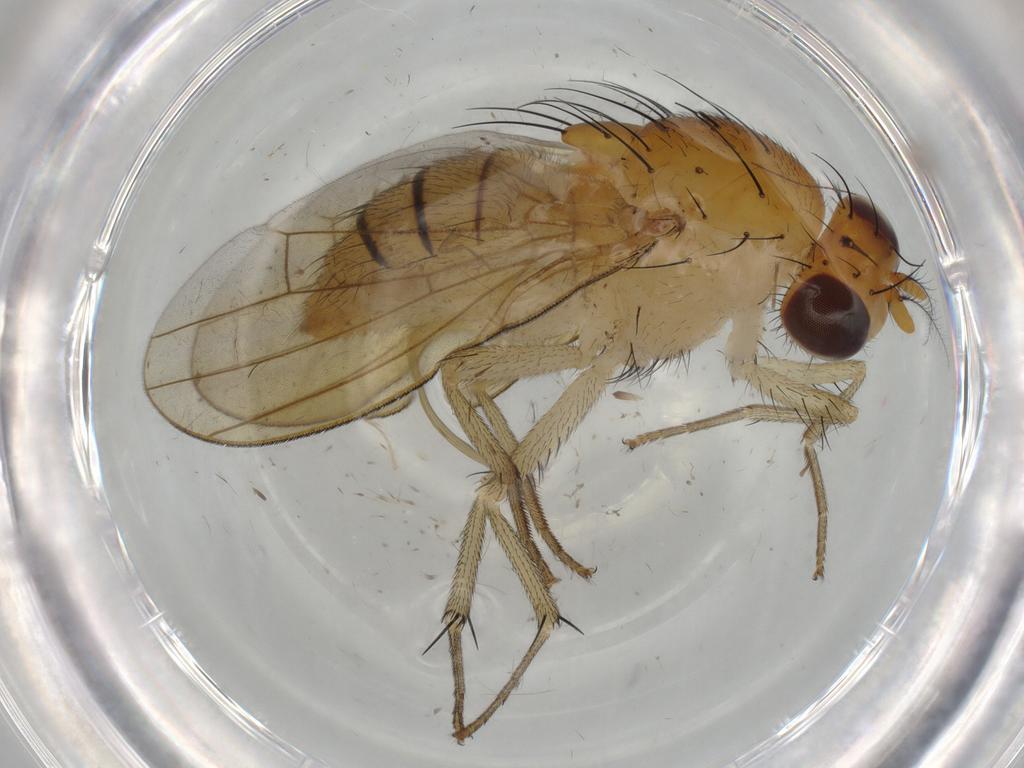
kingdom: Animalia
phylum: Arthropoda
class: Insecta
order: Diptera
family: Sciaridae
